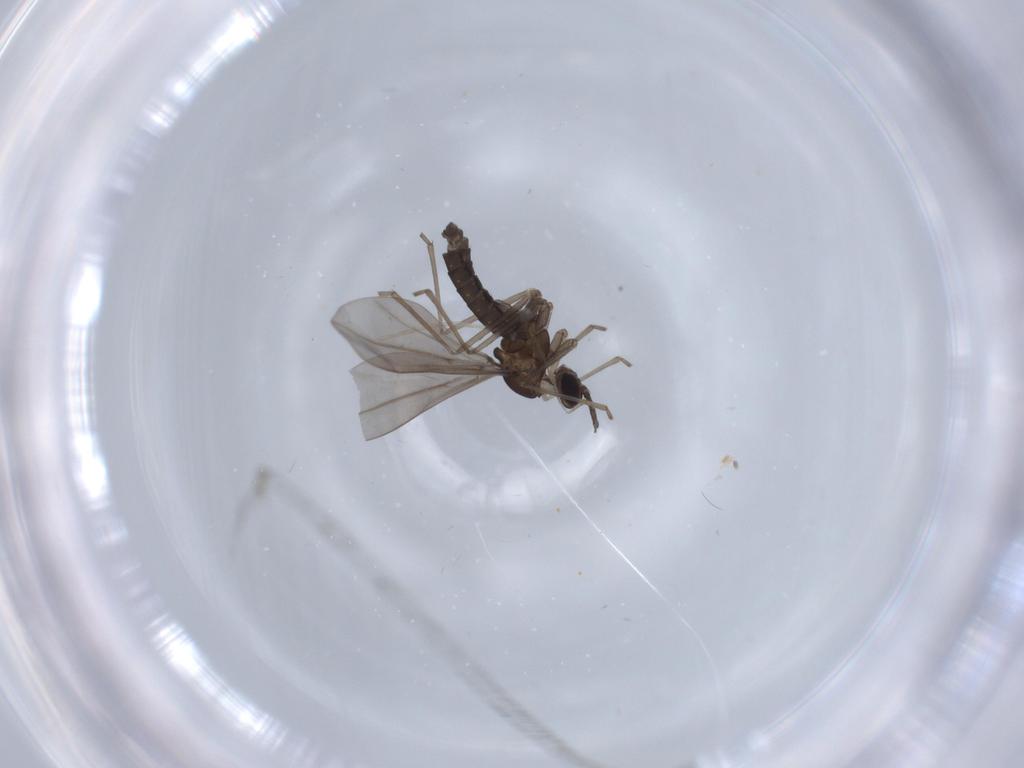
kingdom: Animalia
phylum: Arthropoda
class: Insecta
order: Diptera
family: Cecidomyiidae
